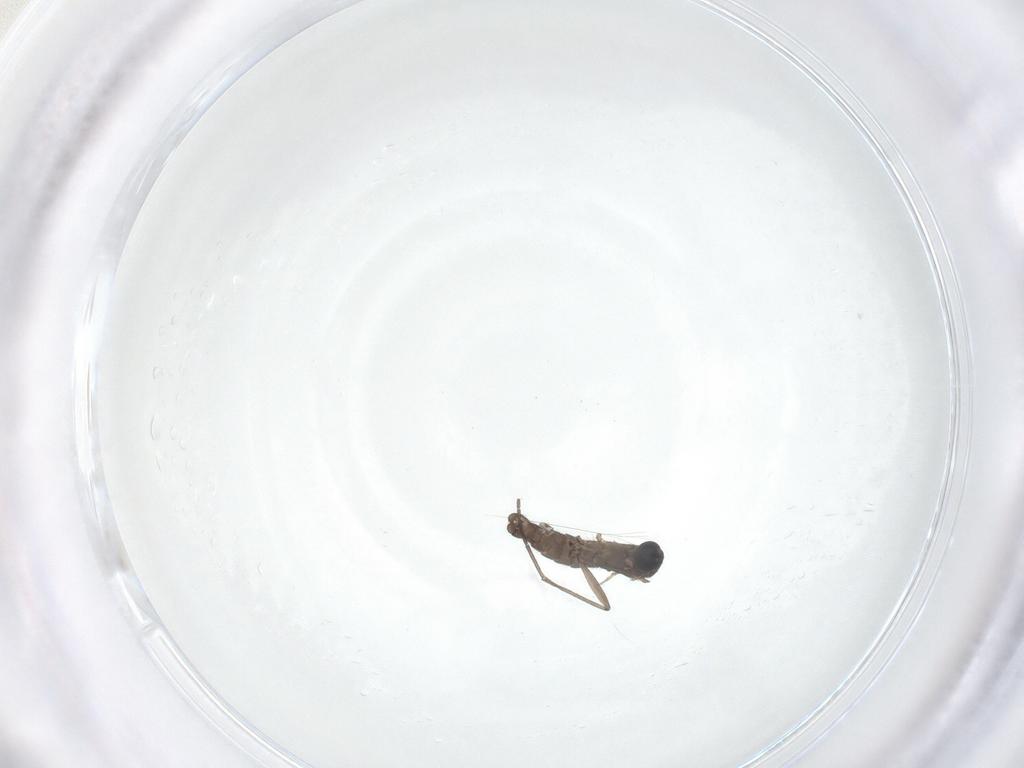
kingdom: Animalia
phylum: Arthropoda
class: Insecta
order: Diptera
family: Sciaridae
